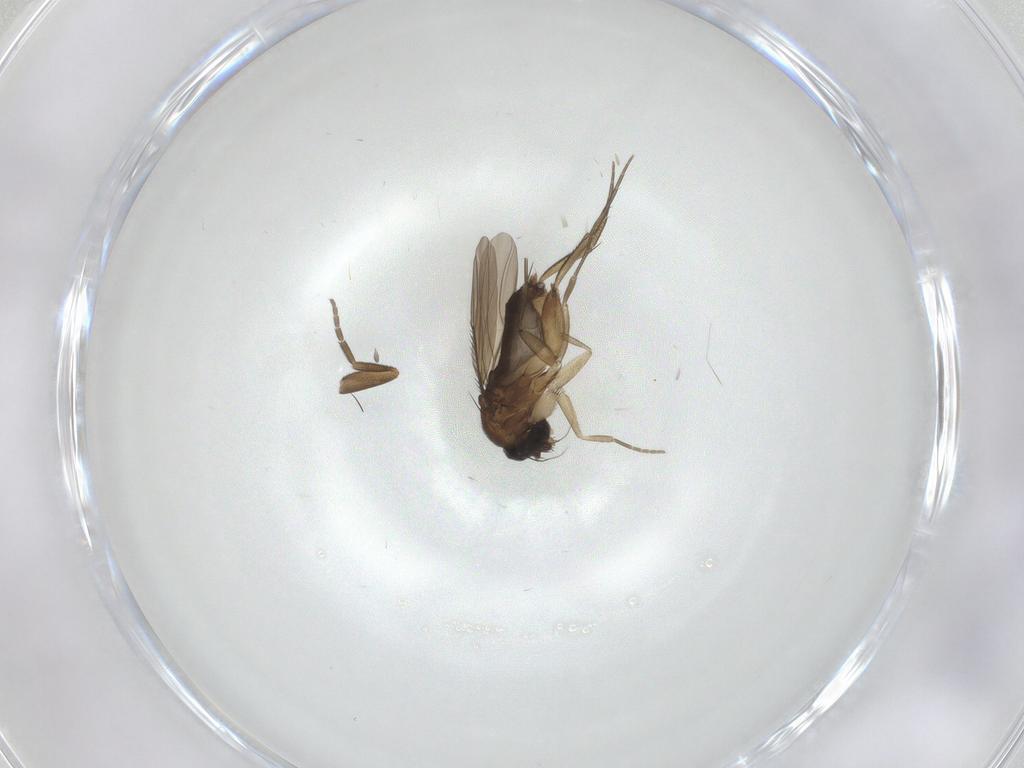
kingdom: Animalia
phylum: Arthropoda
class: Insecta
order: Diptera
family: Phoridae
